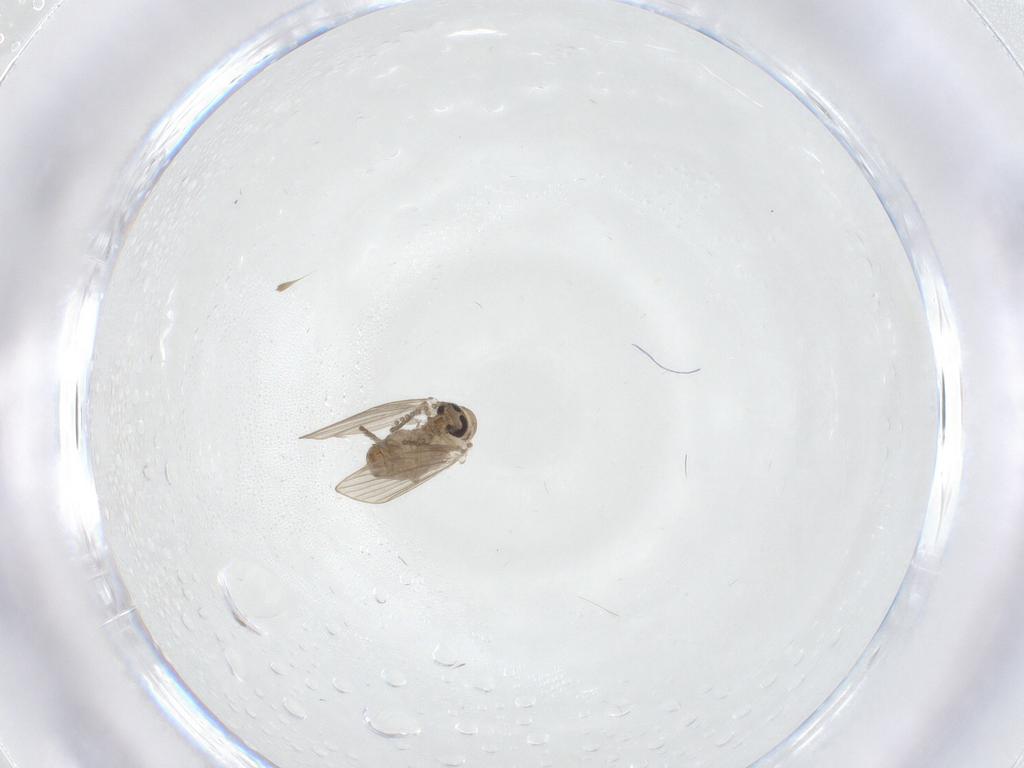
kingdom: Animalia
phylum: Arthropoda
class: Insecta
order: Diptera
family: Psychodidae
